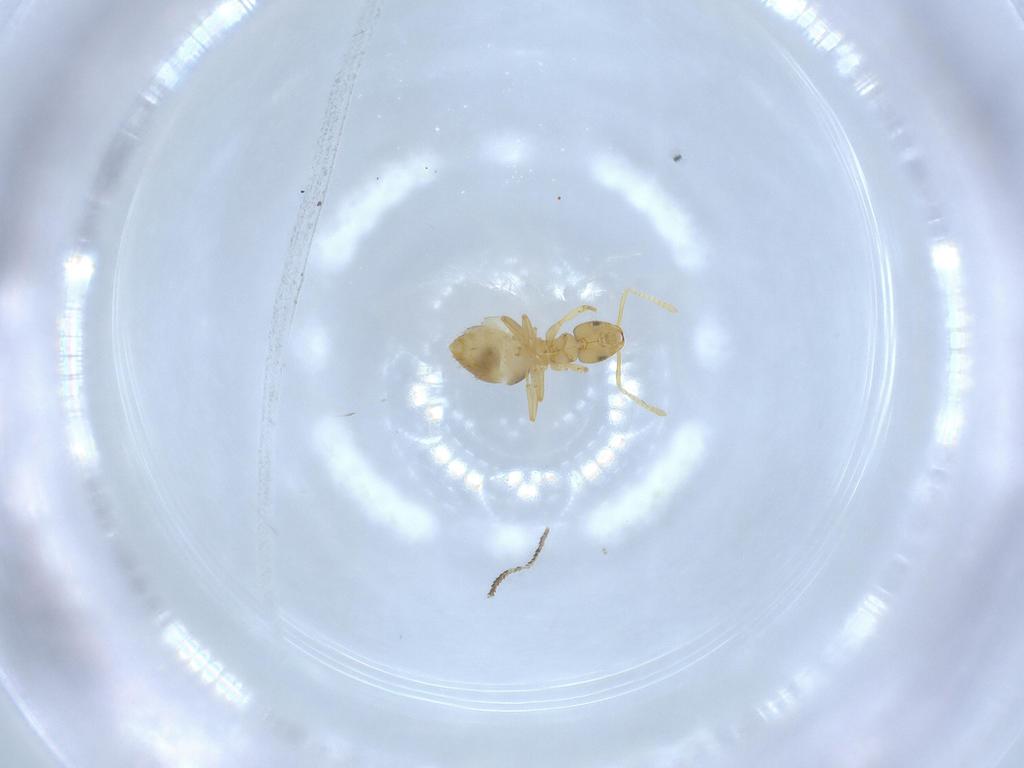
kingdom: Animalia
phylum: Arthropoda
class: Insecta
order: Hymenoptera
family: Formicidae
